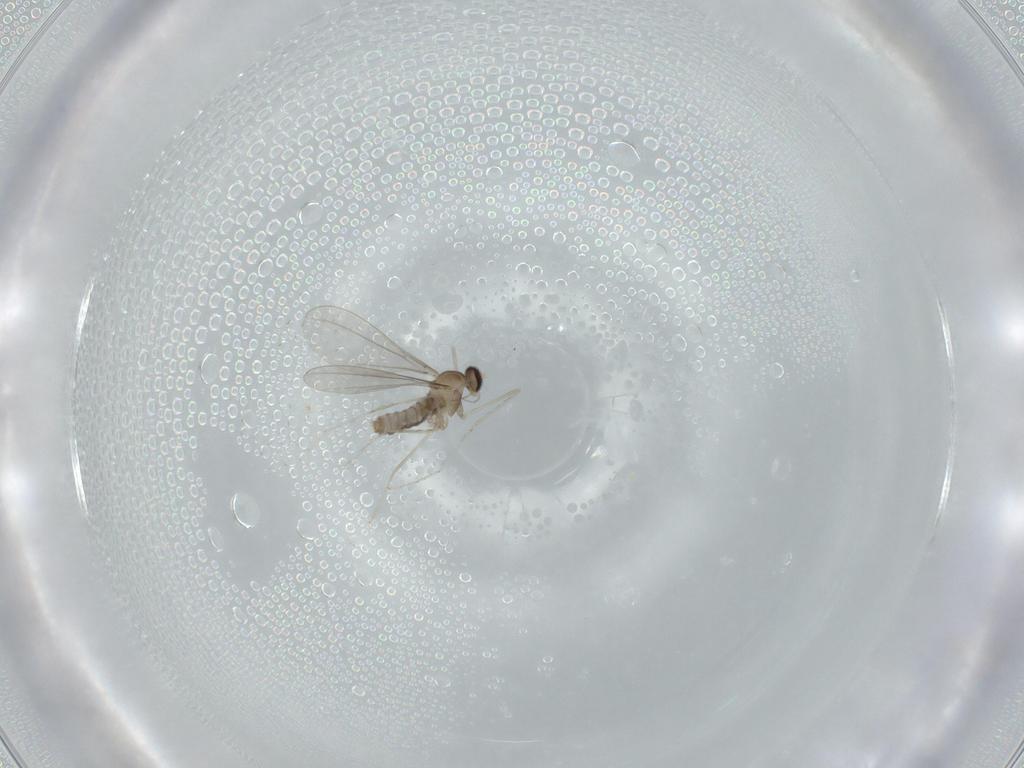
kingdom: Animalia
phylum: Arthropoda
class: Insecta
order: Diptera
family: Cecidomyiidae
